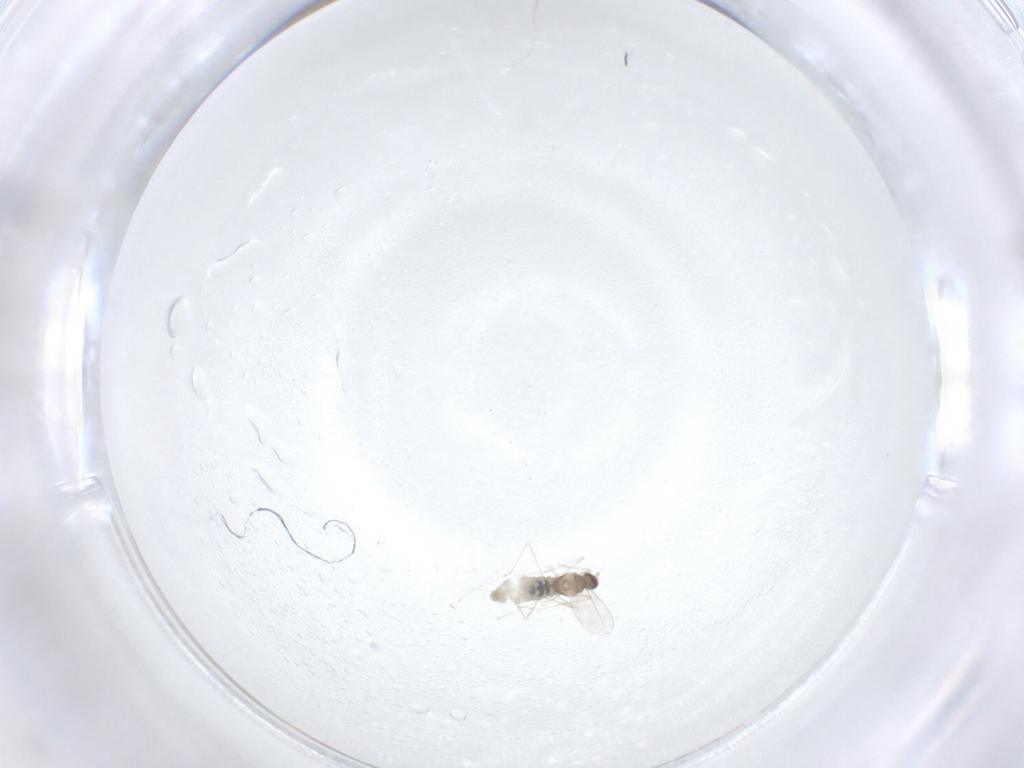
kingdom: Animalia
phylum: Arthropoda
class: Insecta
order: Diptera
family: Cecidomyiidae
